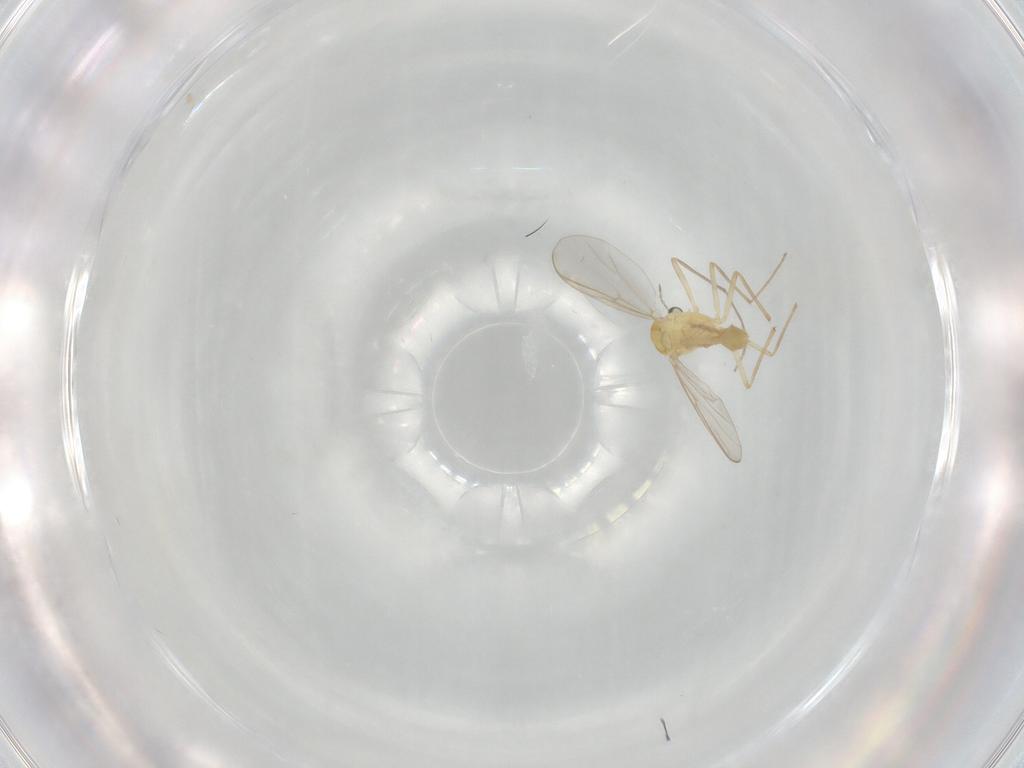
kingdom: Animalia
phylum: Arthropoda
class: Insecta
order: Diptera
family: Chironomidae
